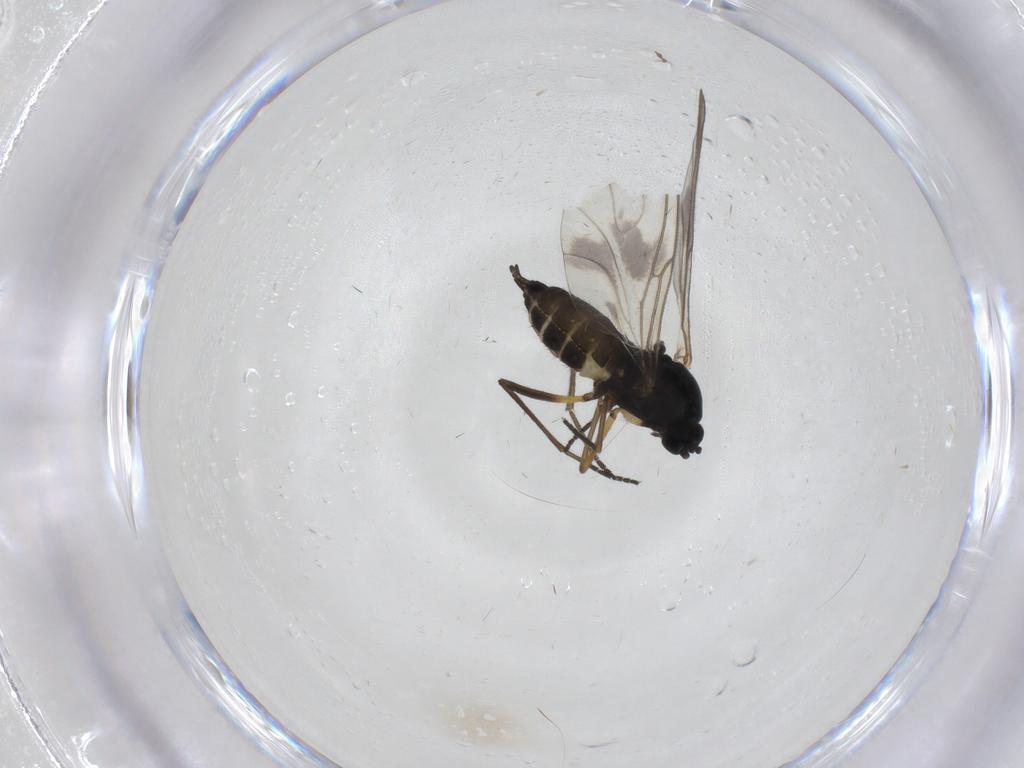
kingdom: Animalia
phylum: Arthropoda
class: Insecta
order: Diptera
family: Sciaridae
